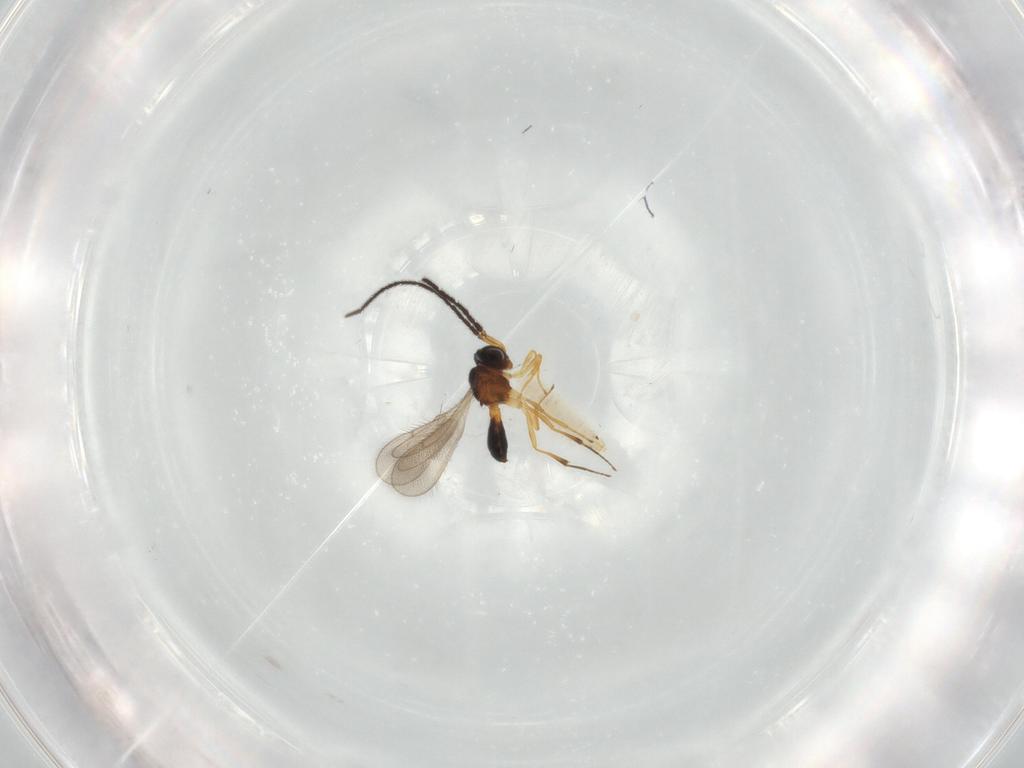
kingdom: Animalia
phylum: Arthropoda
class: Insecta
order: Hymenoptera
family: Scelionidae
